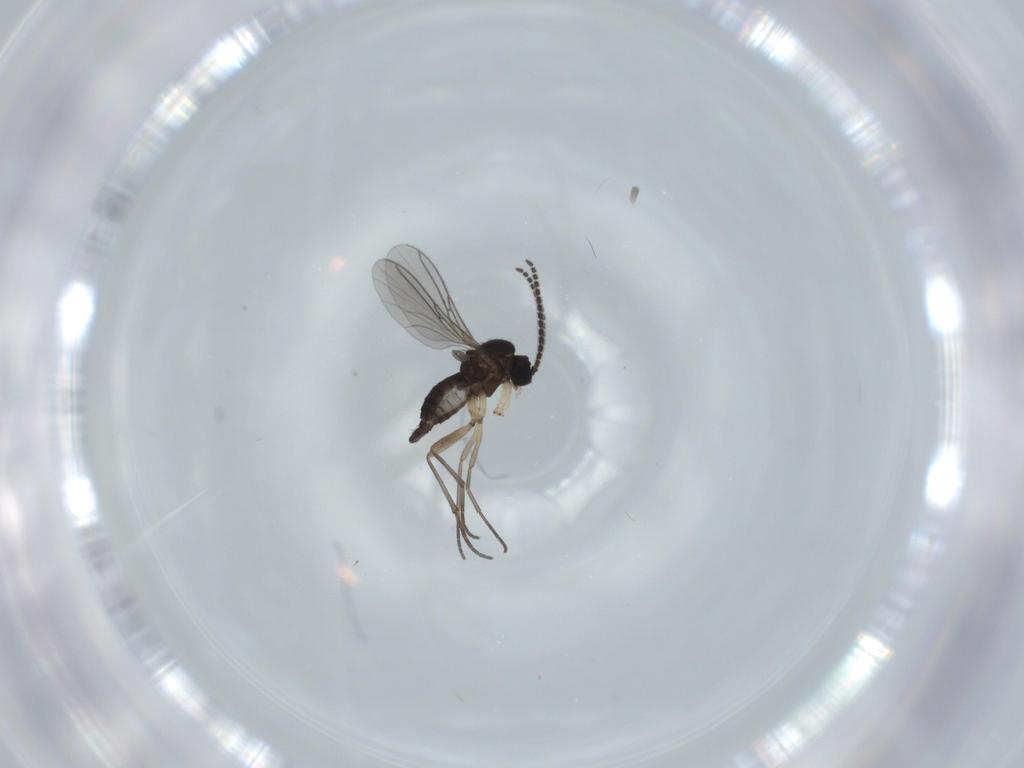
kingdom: Animalia
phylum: Arthropoda
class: Insecta
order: Diptera
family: Sciaridae
